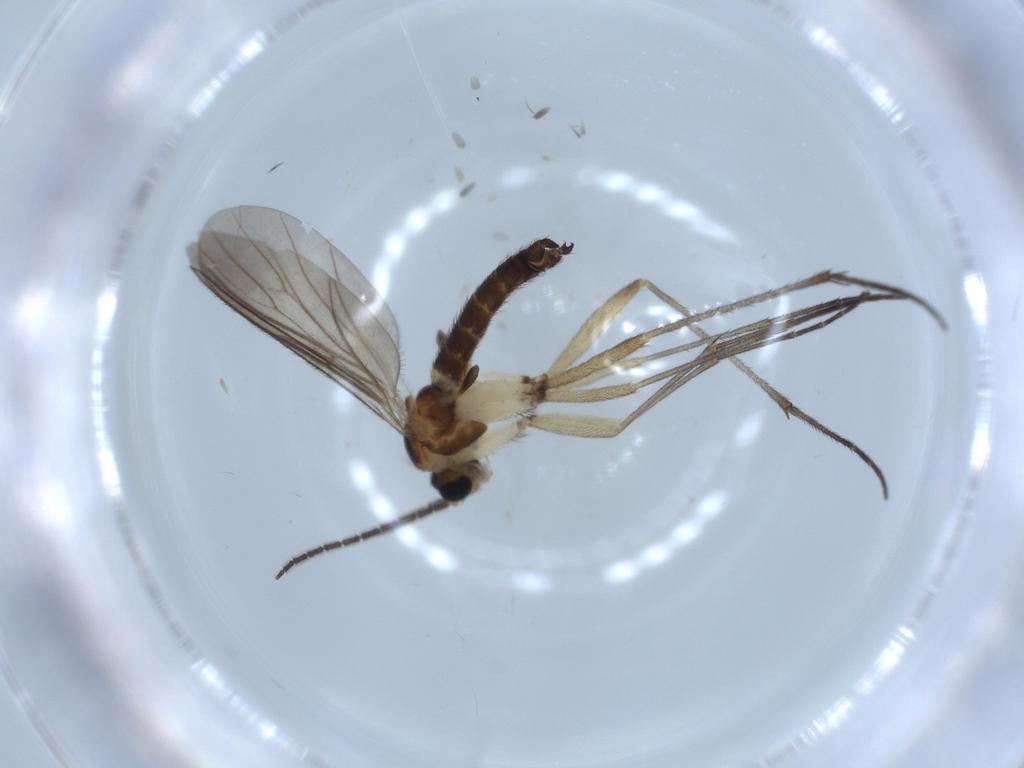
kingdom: Animalia
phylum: Arthropoda
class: Insecta
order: Diptera
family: Sciaridae
